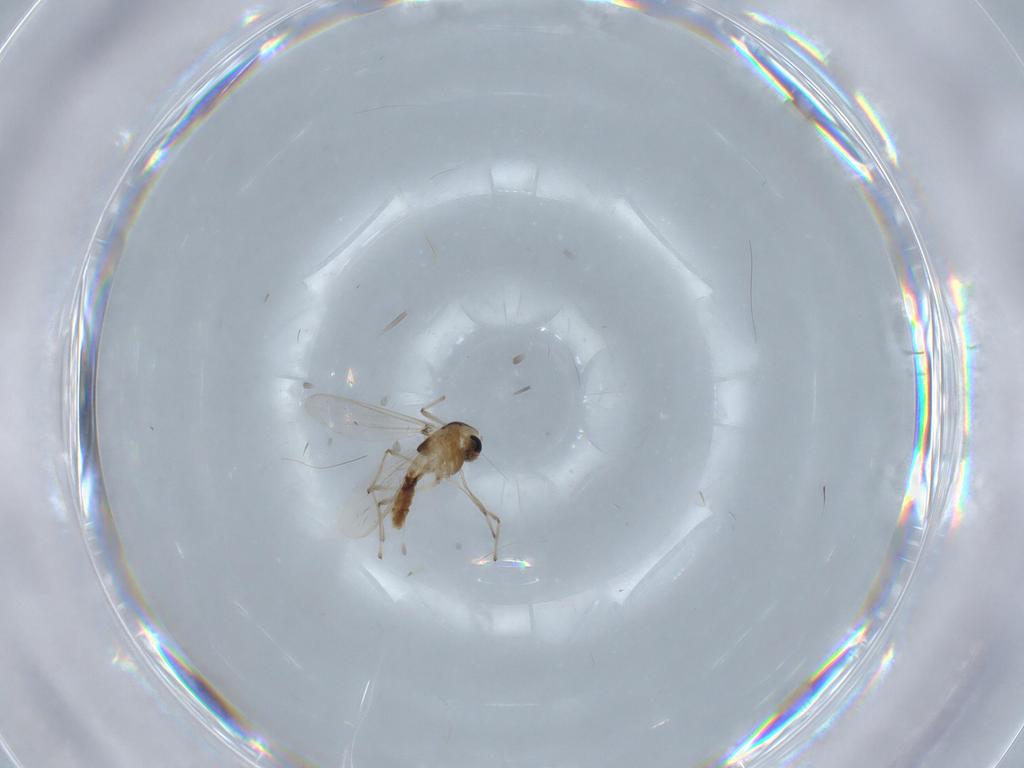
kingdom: Animalia
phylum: Arthropoda
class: Insecta
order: Diptera
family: Chironomidae
